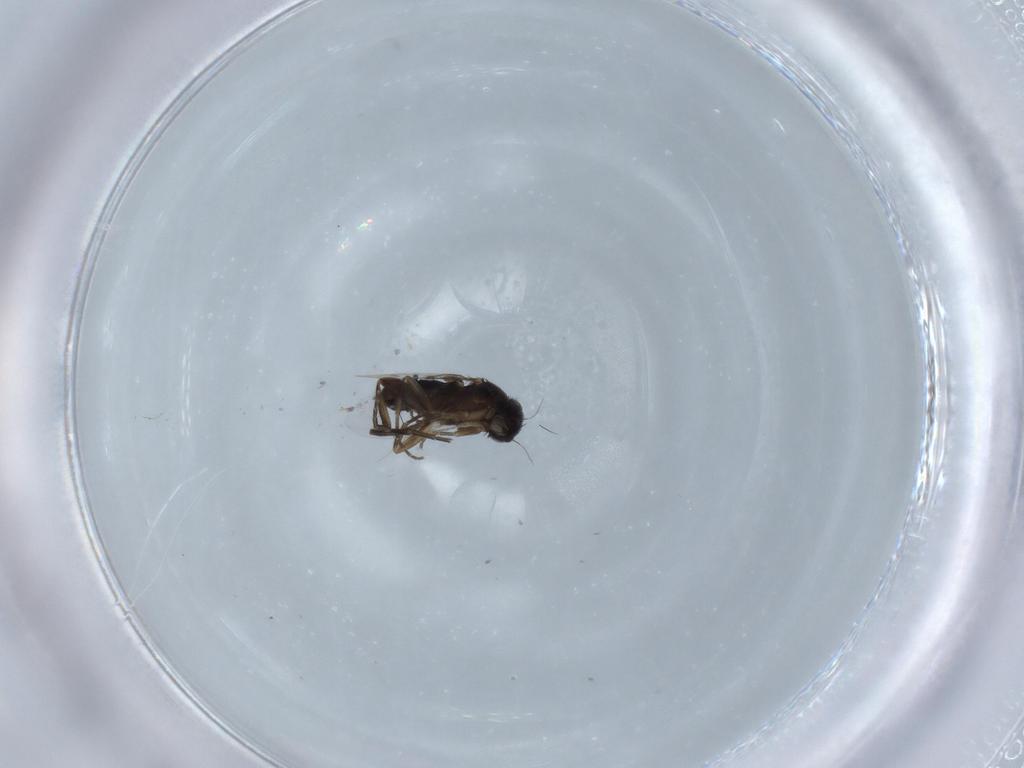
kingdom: Animalia
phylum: Arthropoda
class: Insecta
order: Diptera
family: Phoridae
